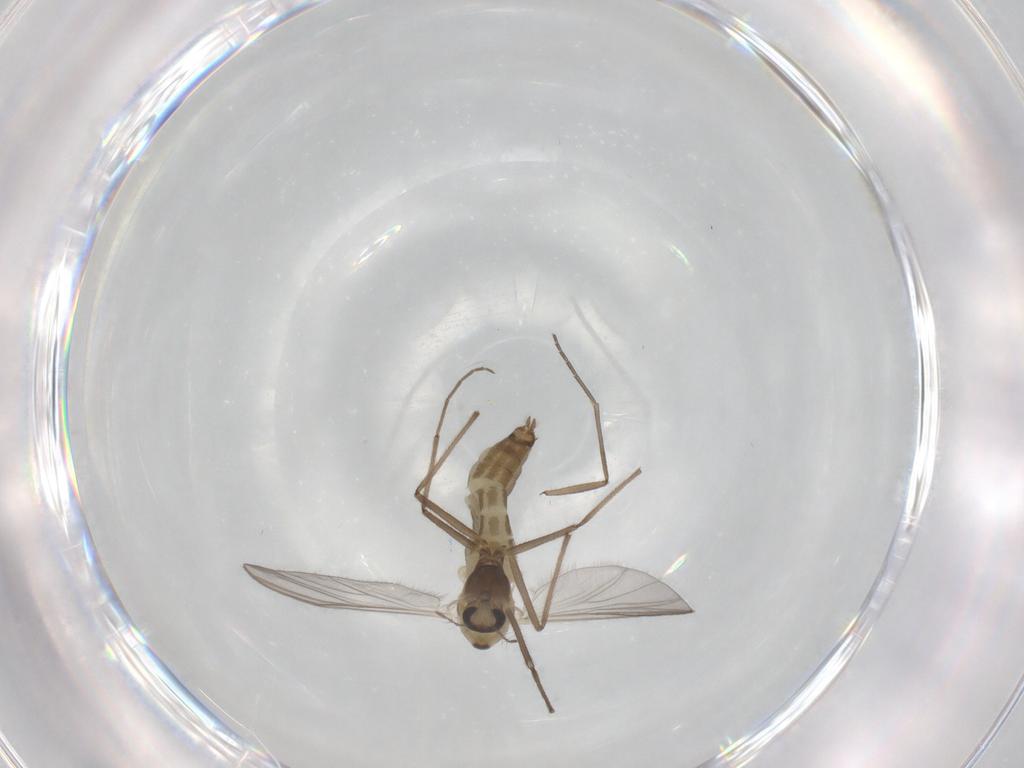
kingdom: Animalia
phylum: Arthropoda
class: Insecta
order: Diptera
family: Chironomidae
